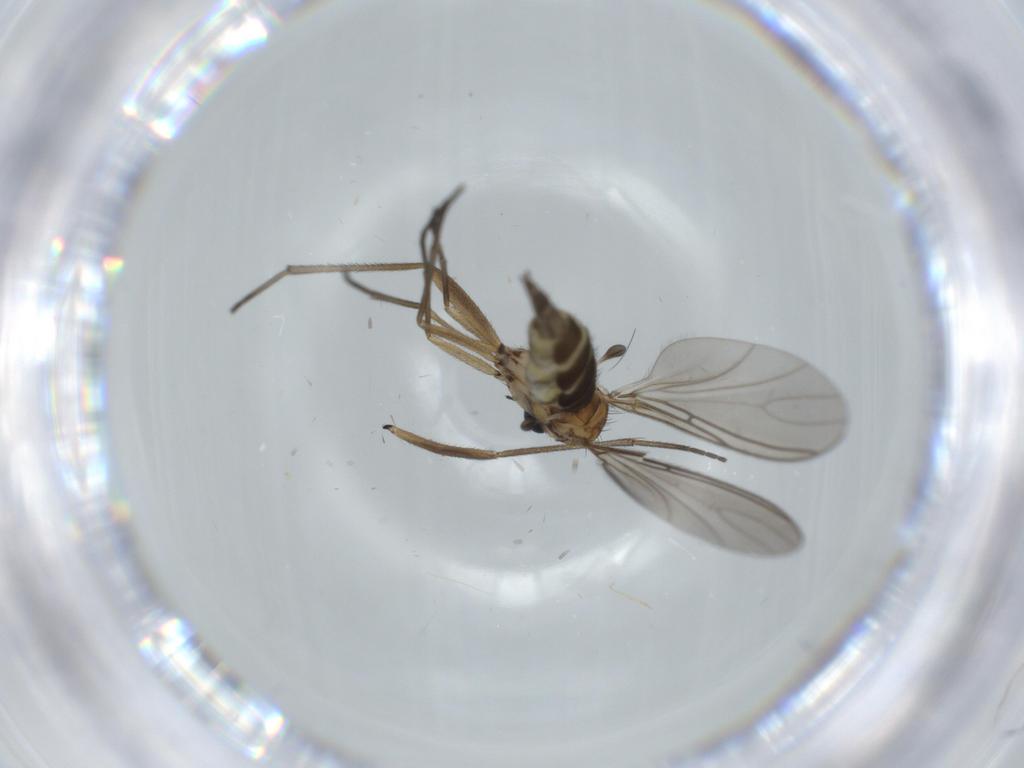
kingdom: Animalia
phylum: Arthropoda
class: Insecta
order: Diptera
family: Sciaridae
